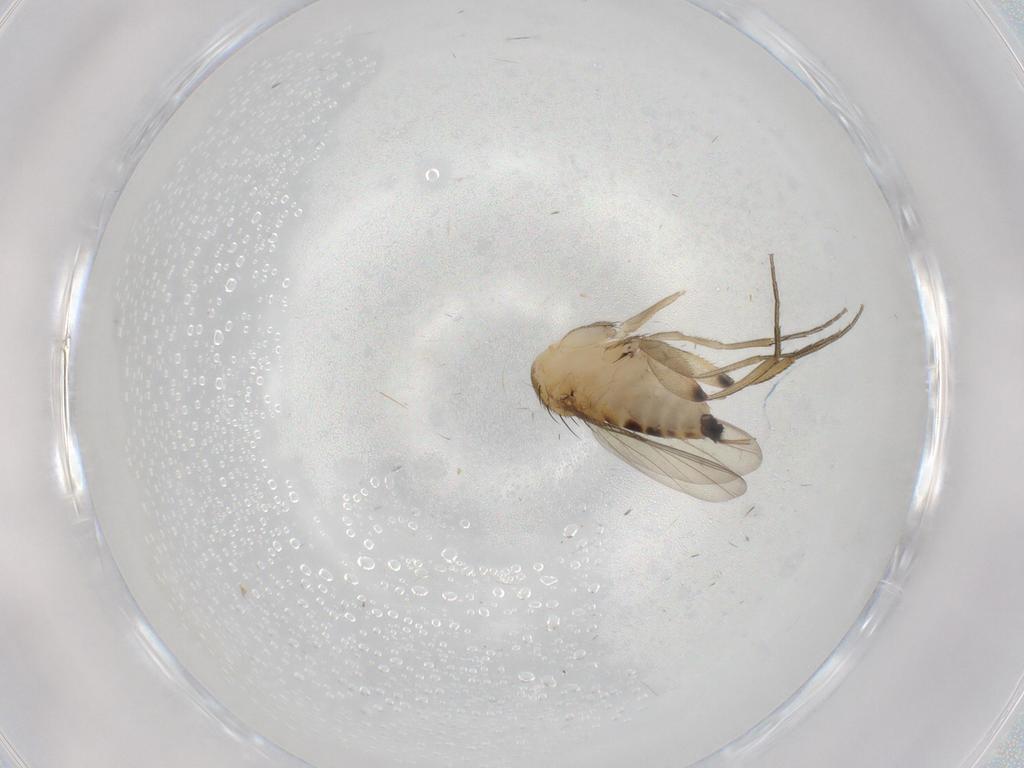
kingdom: Animalia
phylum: Arthropoda
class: Insecta
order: Diptera
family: Phoridae
